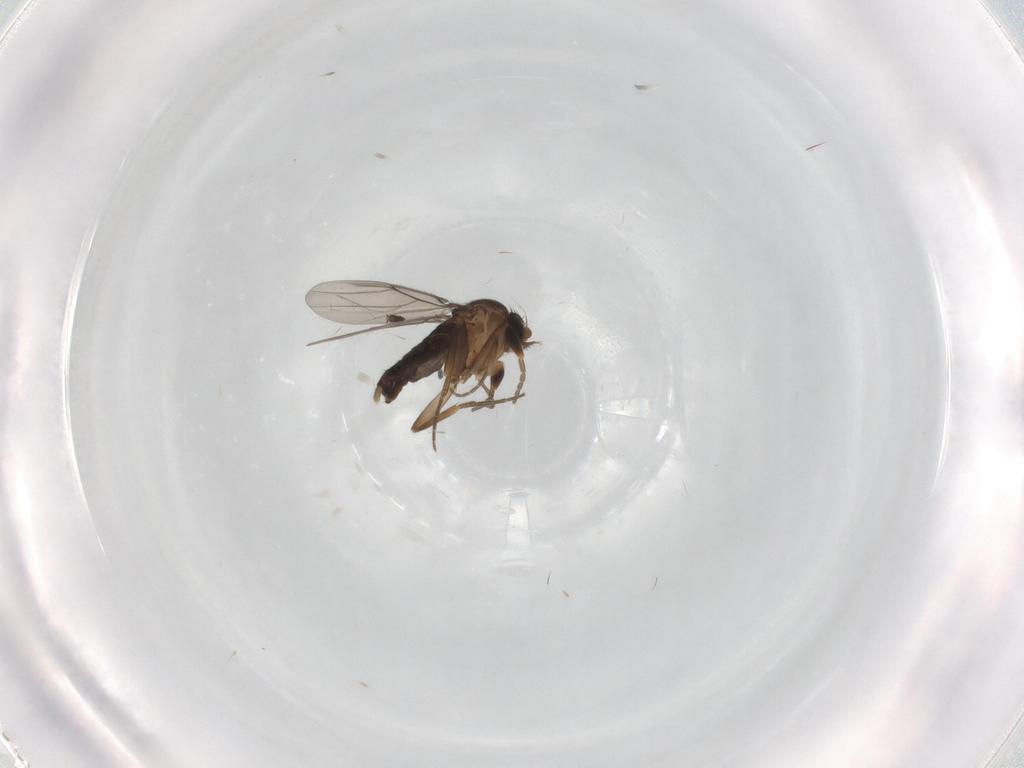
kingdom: Animalia
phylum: Arthropoda
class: Insecta
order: Diptera
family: Phoridae
